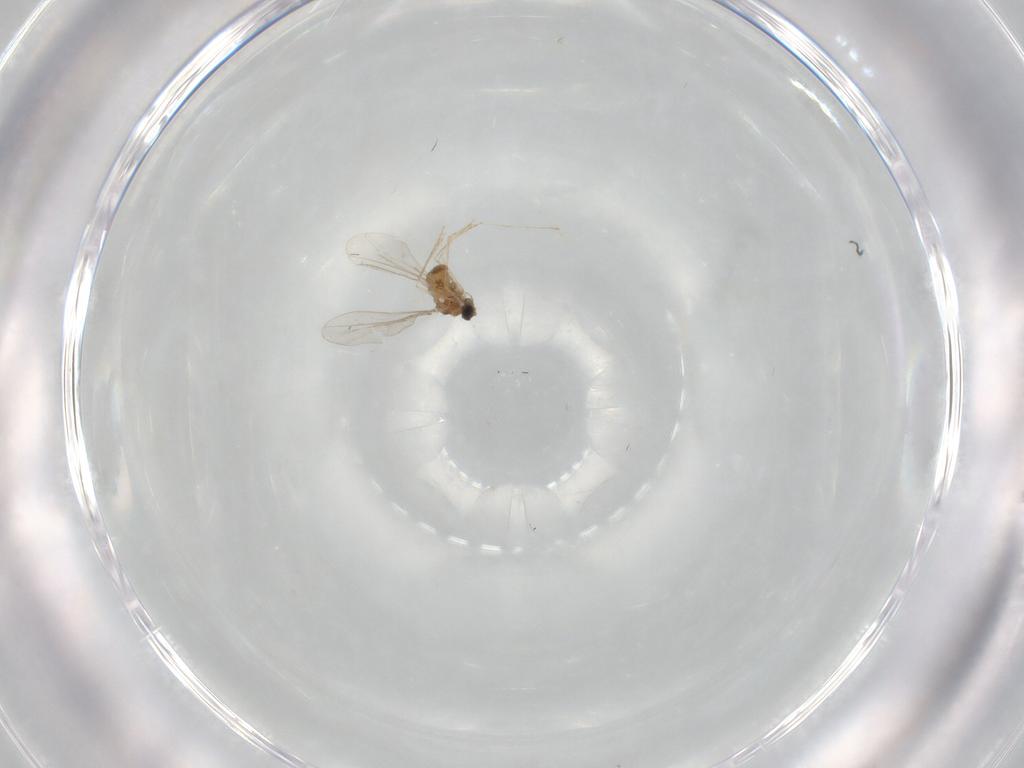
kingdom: Animalia
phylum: Arthropoda
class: Insecta
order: Diptera
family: Cecidomyiidae
